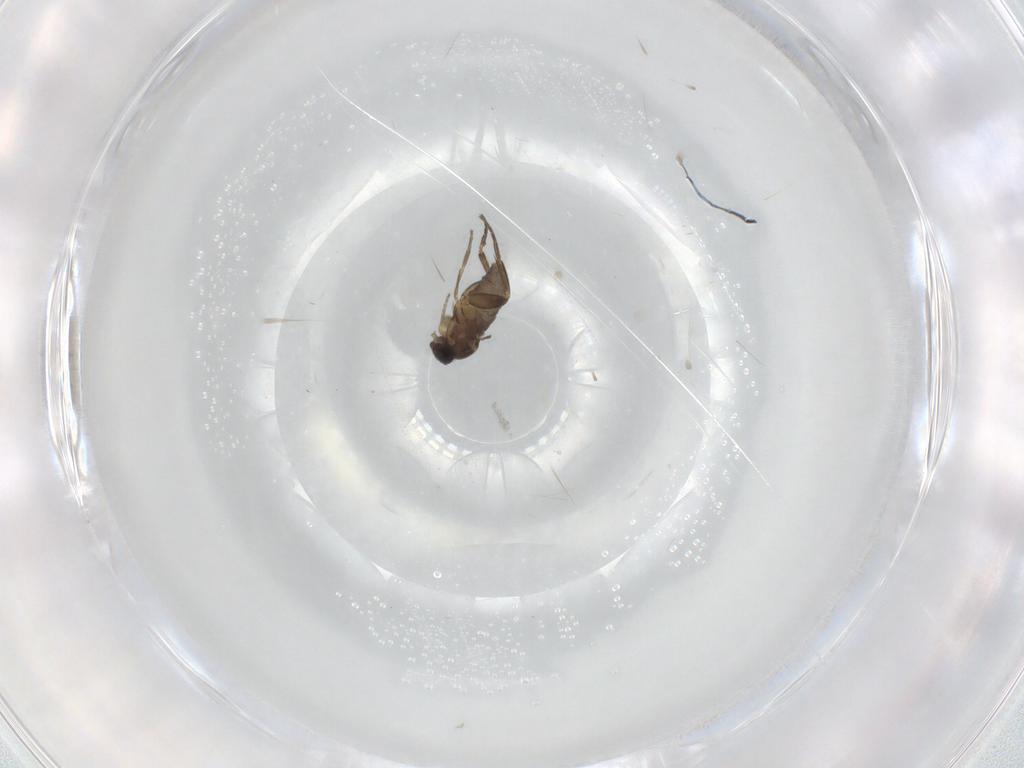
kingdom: Animalia
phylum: Arthropoda
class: Insecta
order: Diptera
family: Phoridae
